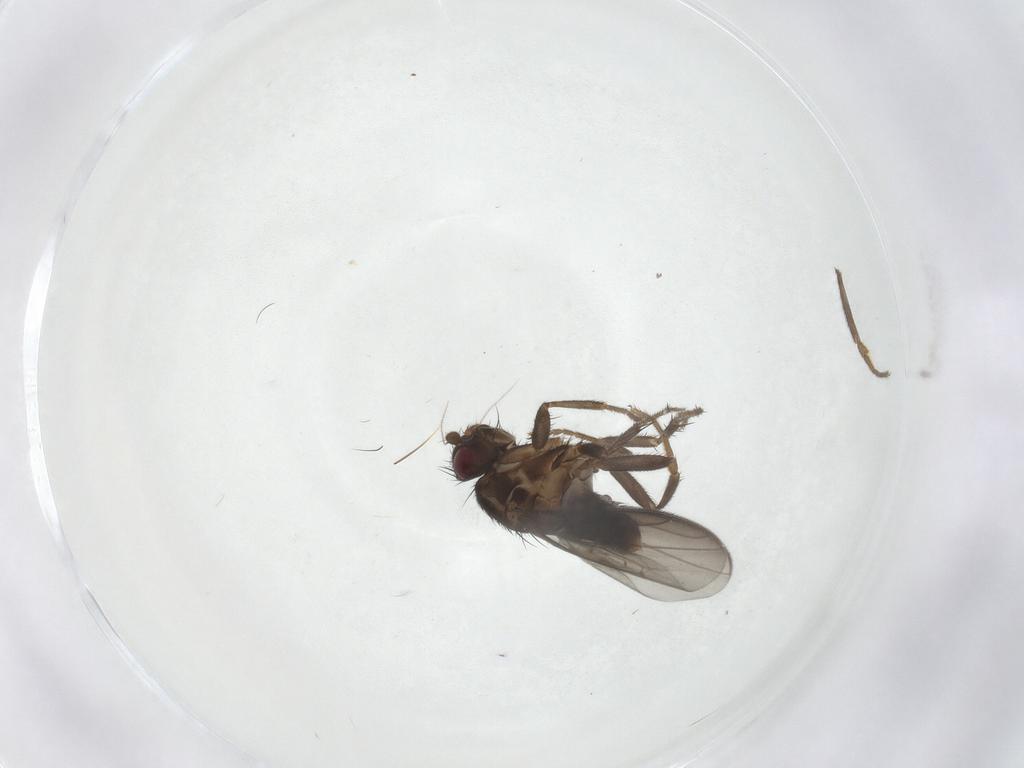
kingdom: Animalia
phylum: Arthropoda
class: Insecta
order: Diptera
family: Sphaeroceridae
